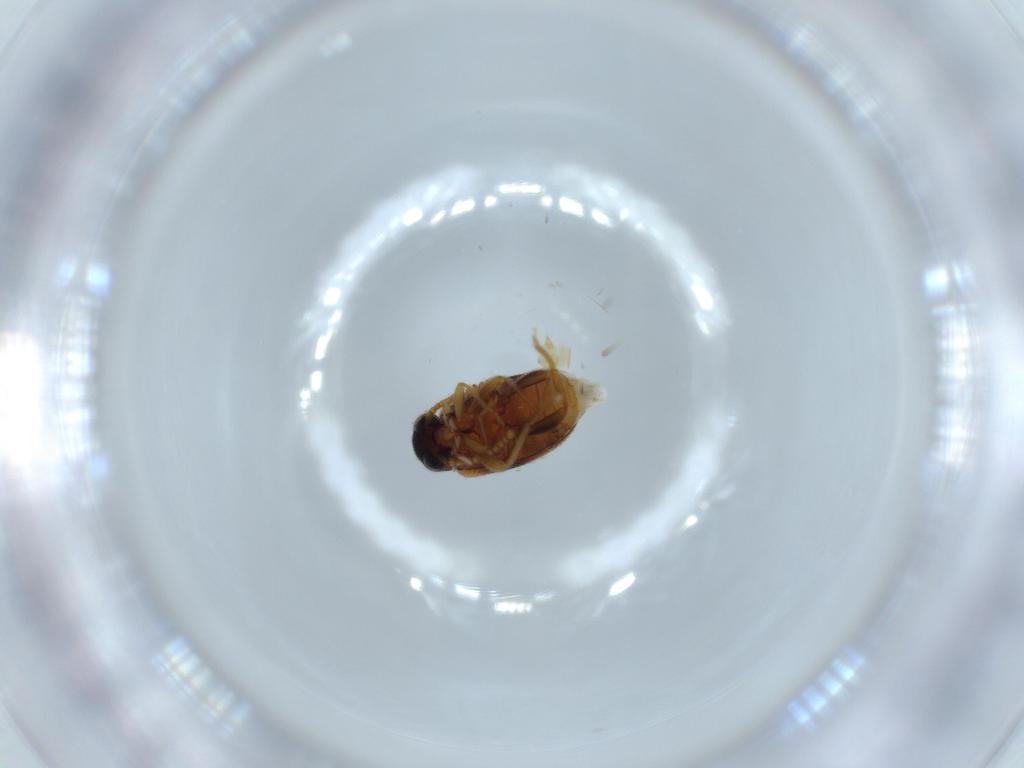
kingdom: Animalia
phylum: Arthropoda
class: Insecta
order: Coleoptera
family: Aderidae
